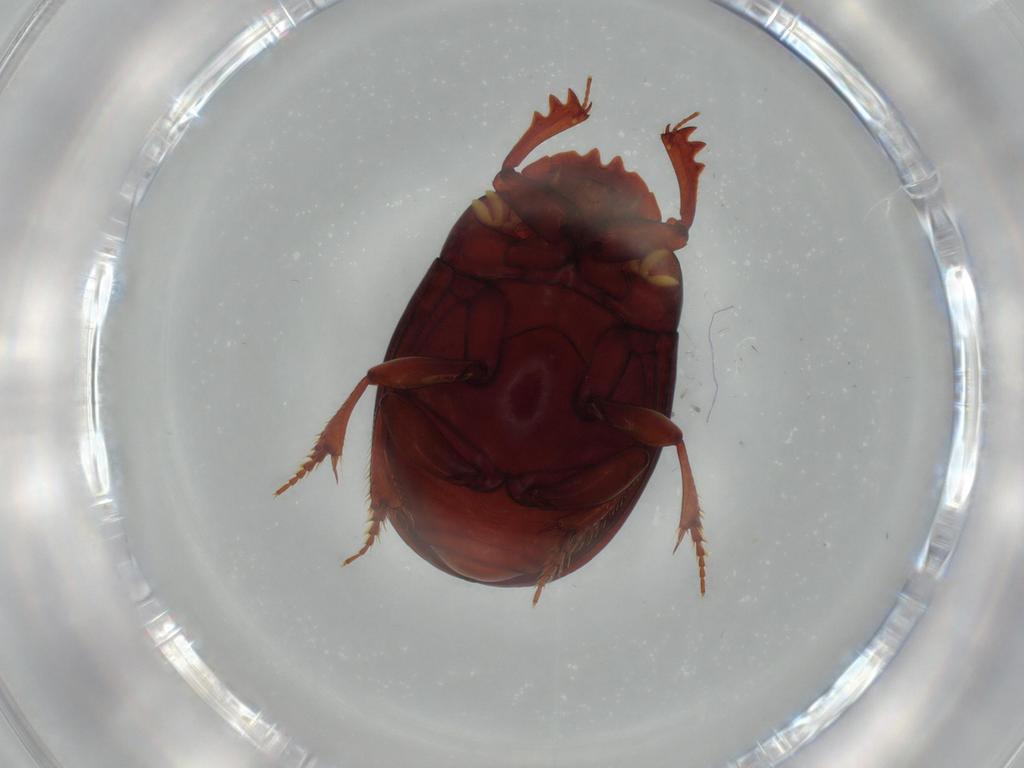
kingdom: Animalia
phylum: Arthropoda
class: Insecta
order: Coleoptera
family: Scarabaeidae
